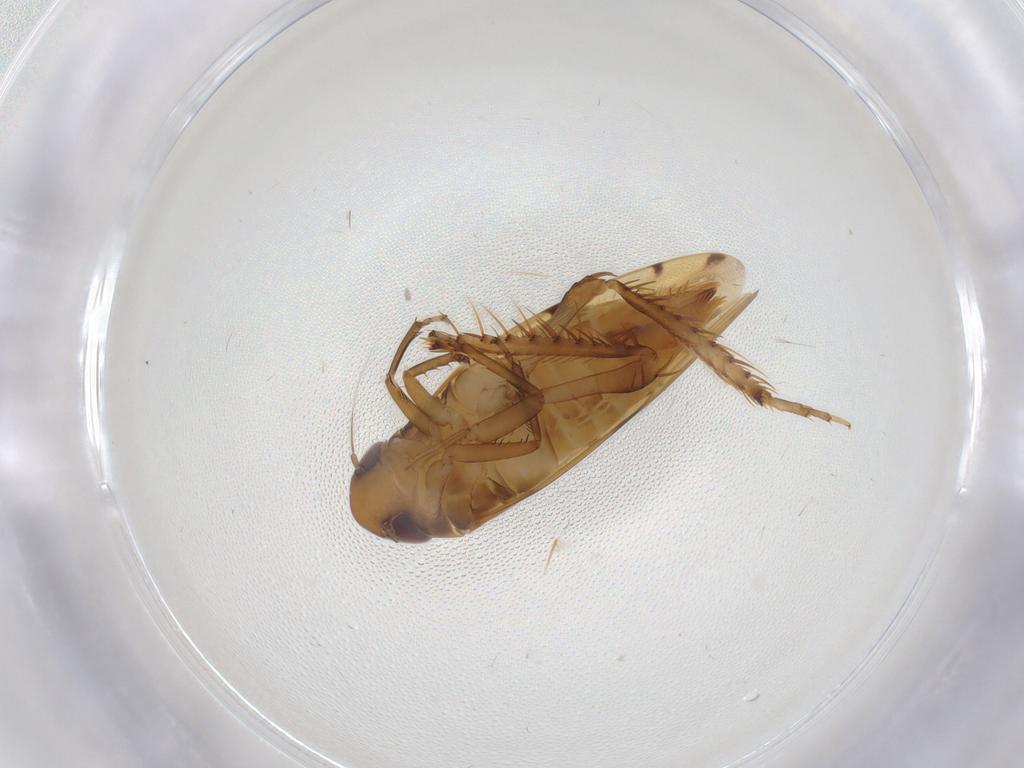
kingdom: Animalia
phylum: Arthropoda
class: Insecta
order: Hemiptera
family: Cicadellidae
